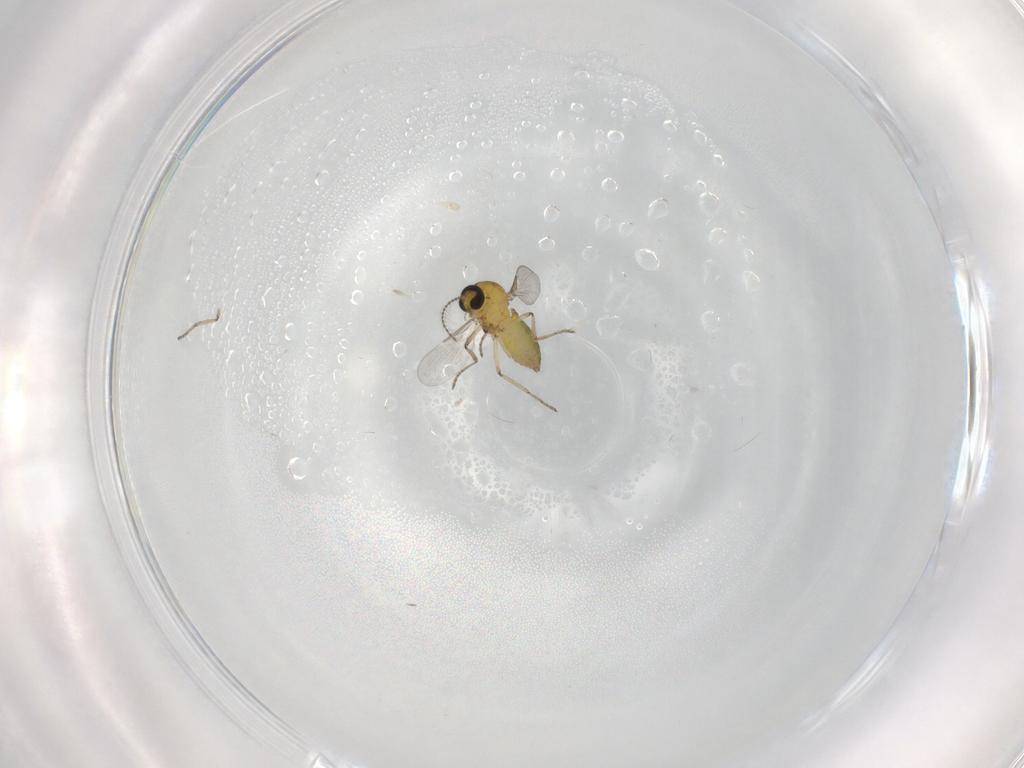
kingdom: Animalia
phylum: Arthropoda
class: Insecta
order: Diptera
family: Ceratopogonidae
